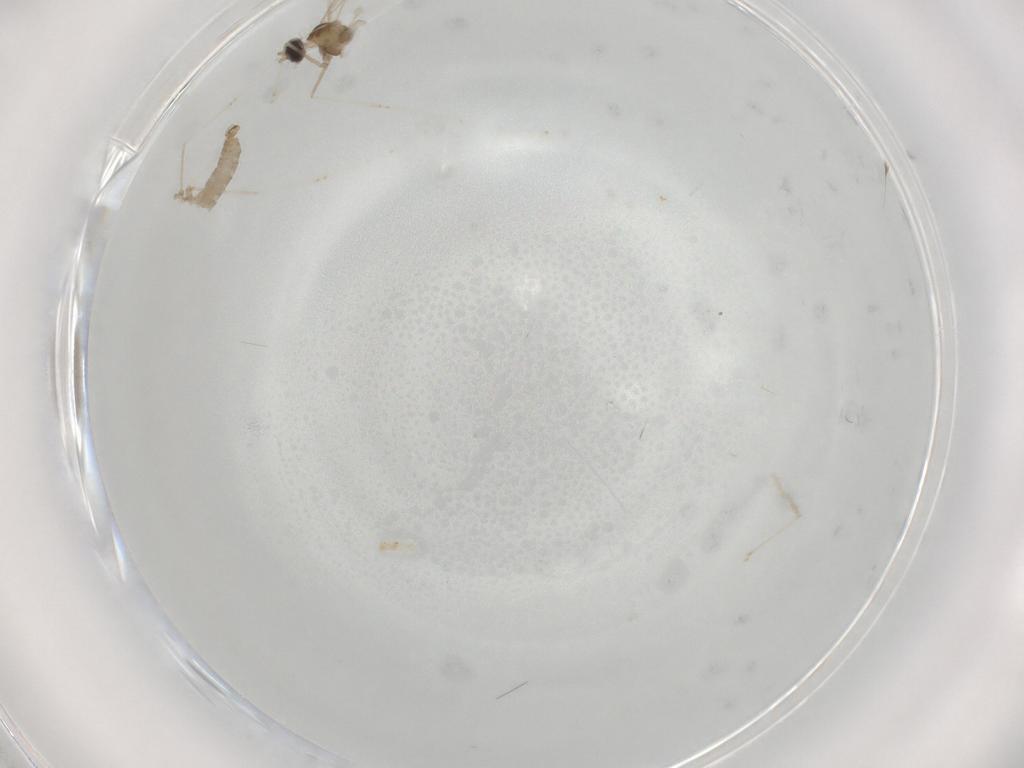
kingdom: Animalia
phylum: Arthropoda
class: Insecta
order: Diptera
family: Cecidomyiidae
